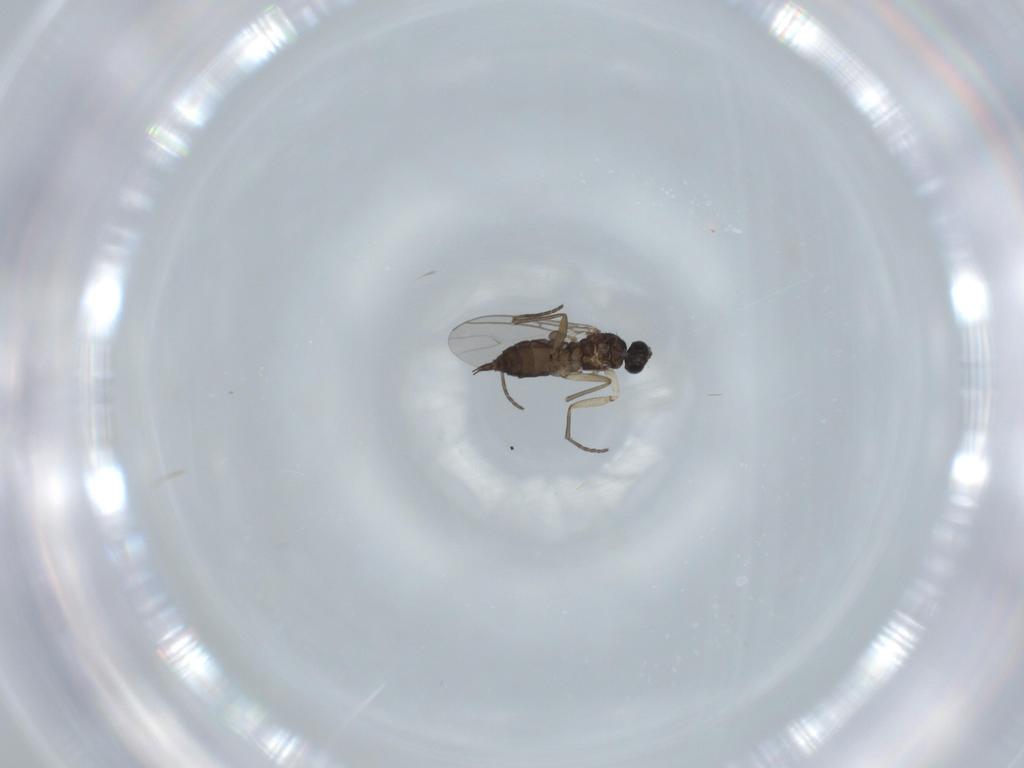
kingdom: Animalia
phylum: Arthropoda
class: Insecta
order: Diptera
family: Sciaridae
